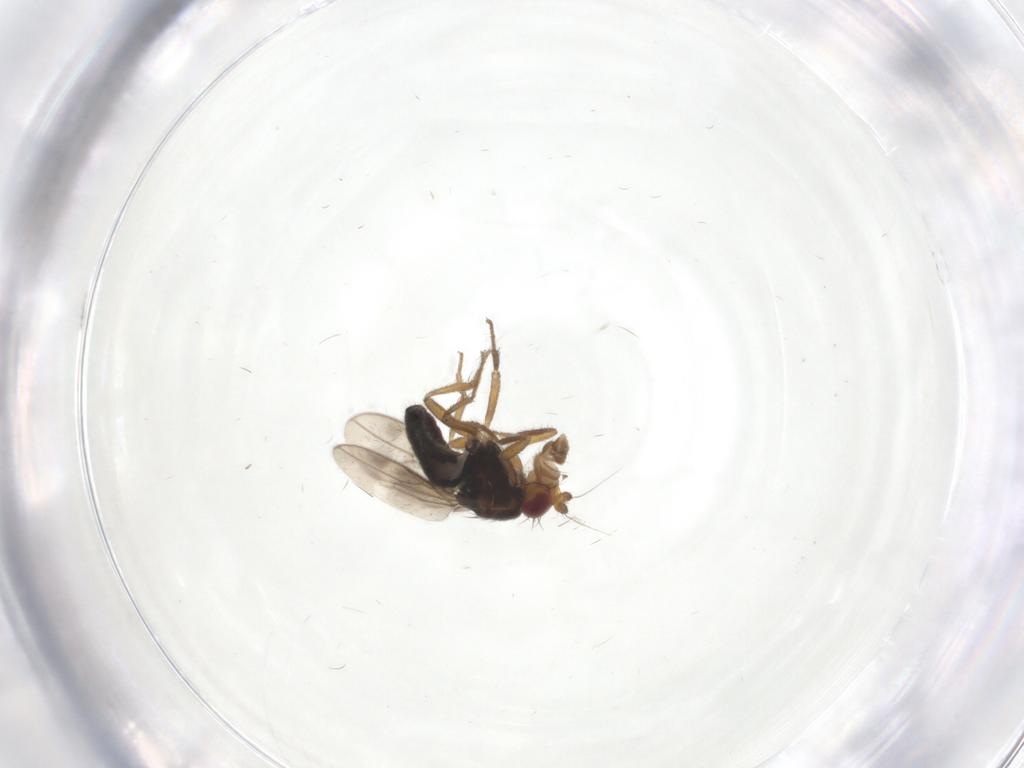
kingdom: Animalia
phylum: Arthropoda
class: Insecta
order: Diptera
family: Sphaeroceridae
